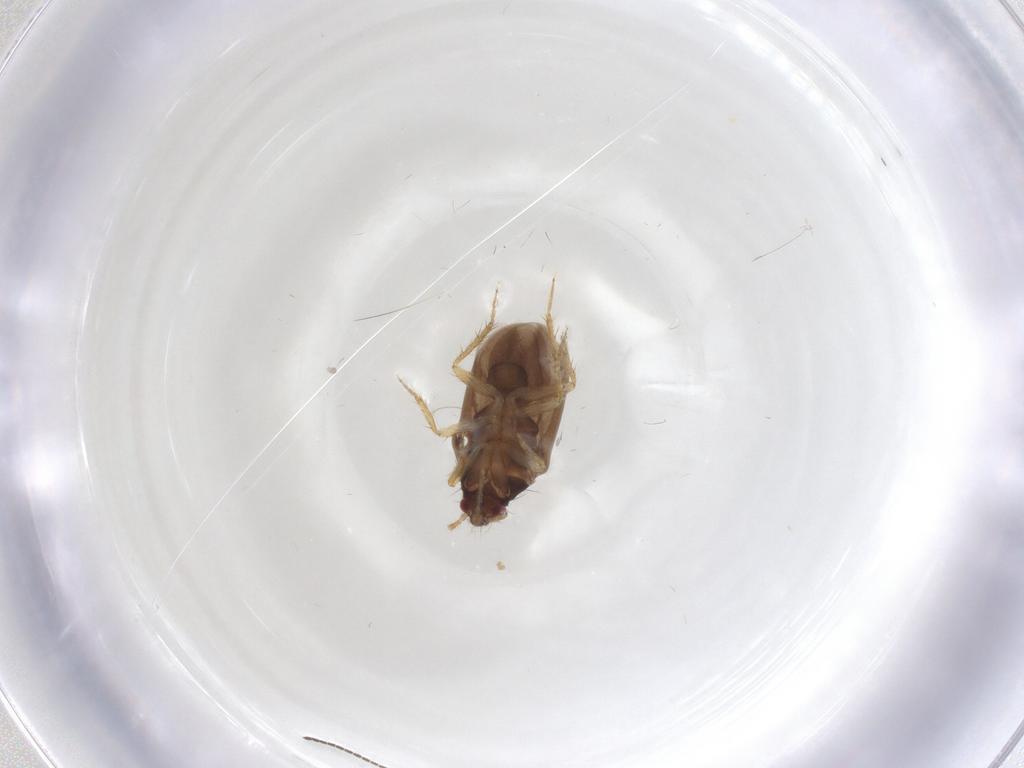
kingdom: Animalia
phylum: Arthropoda
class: Insecta
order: Hemiptera
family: Ceratocombidae
